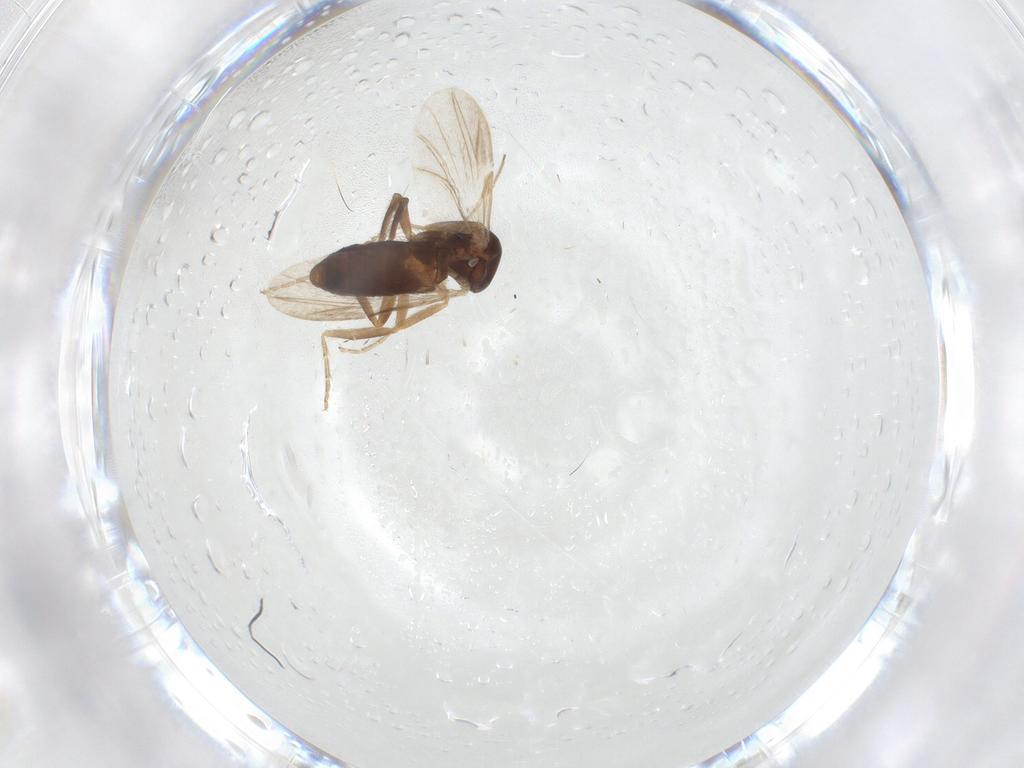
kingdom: Animalia
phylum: Arthropoda
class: Insecta
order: Diptera
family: Ceratopogonidae
